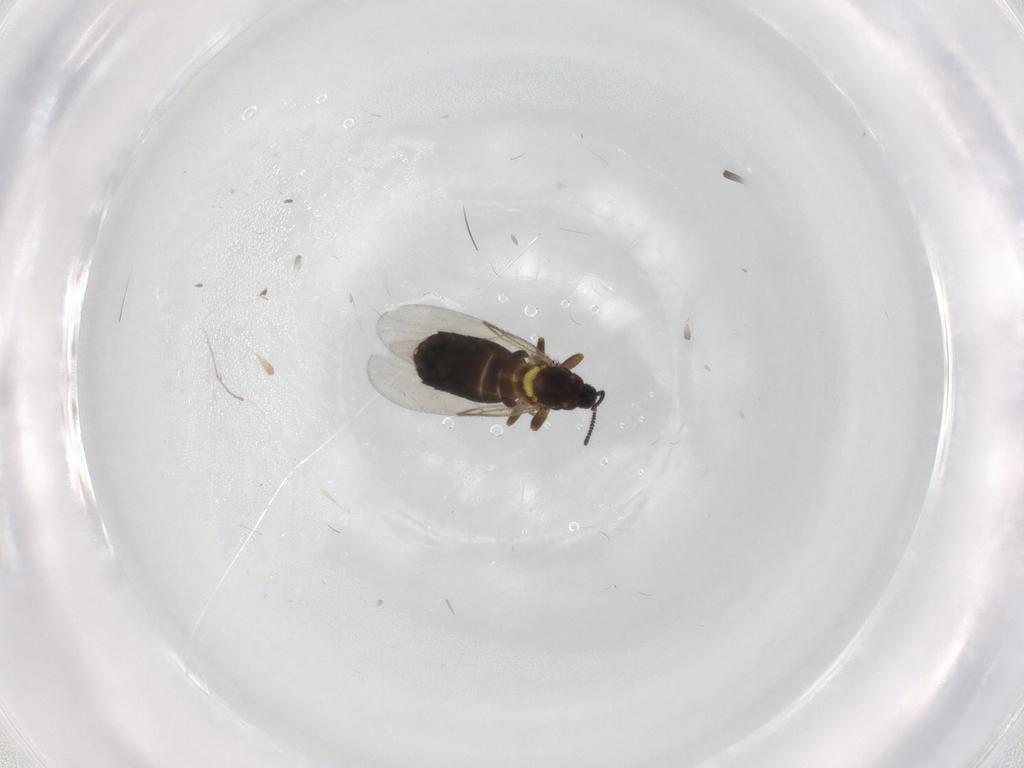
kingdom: Animalia
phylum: Arthropoda
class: Insecta
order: Diptera
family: Scatopsidae
